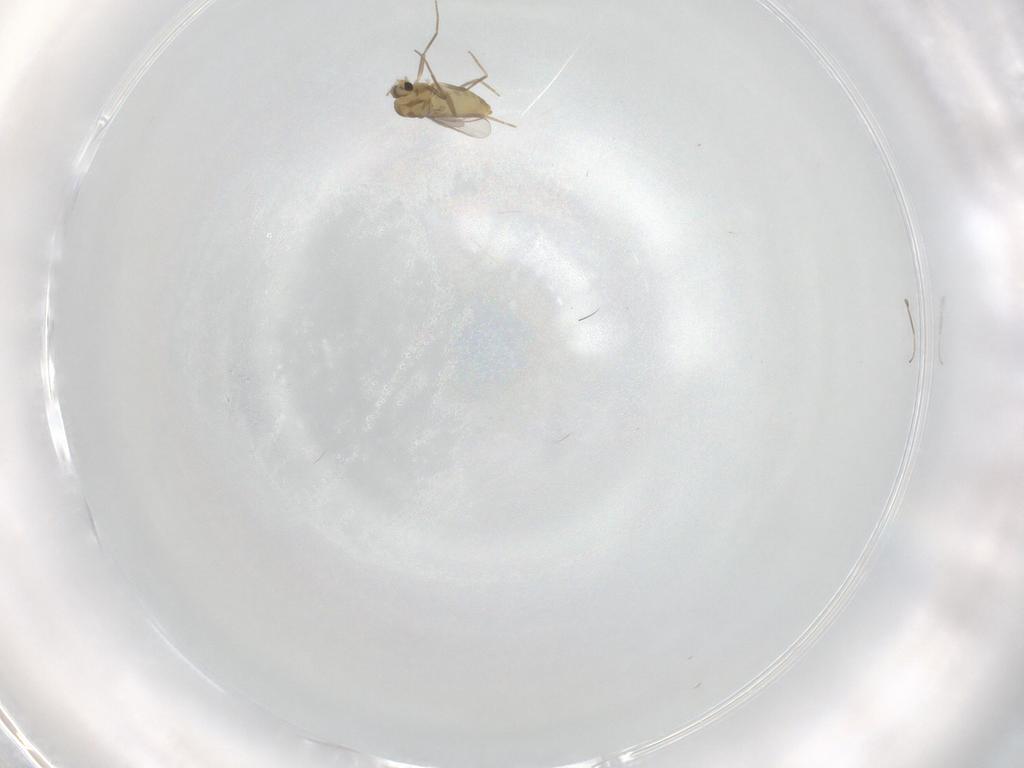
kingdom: Animalia
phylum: Arthropoda
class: Insecta
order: Diptera
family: Chironomidae
